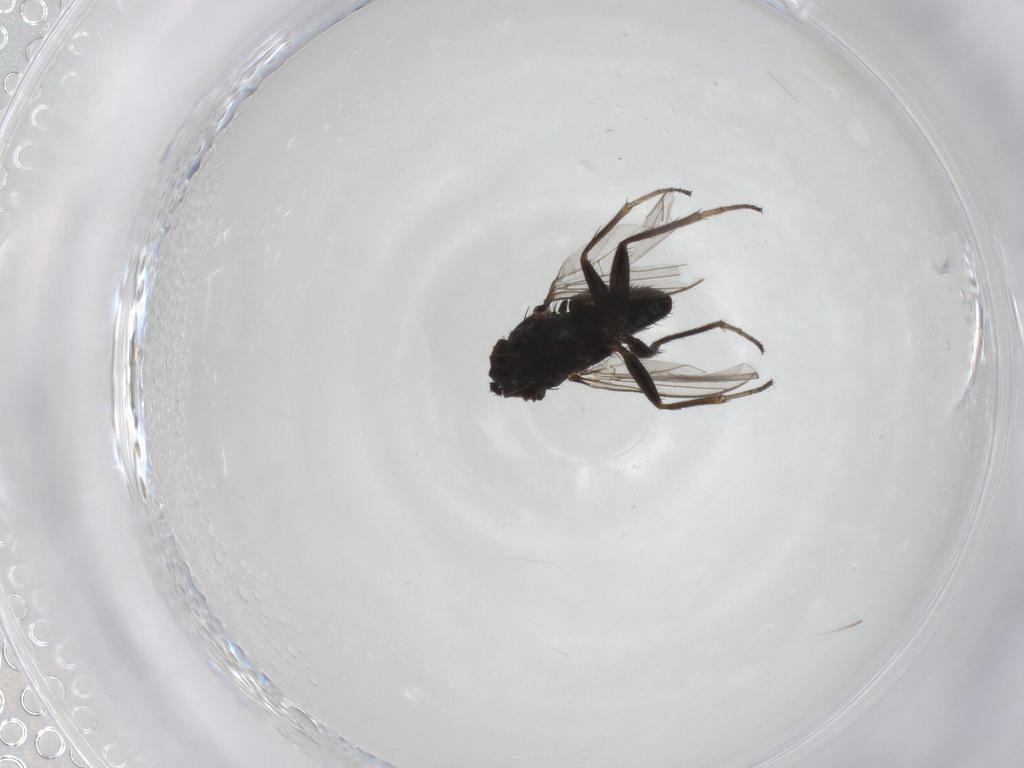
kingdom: Animalia
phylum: Arthropoda
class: Insecta
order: Diptera
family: Dolichopodidae
